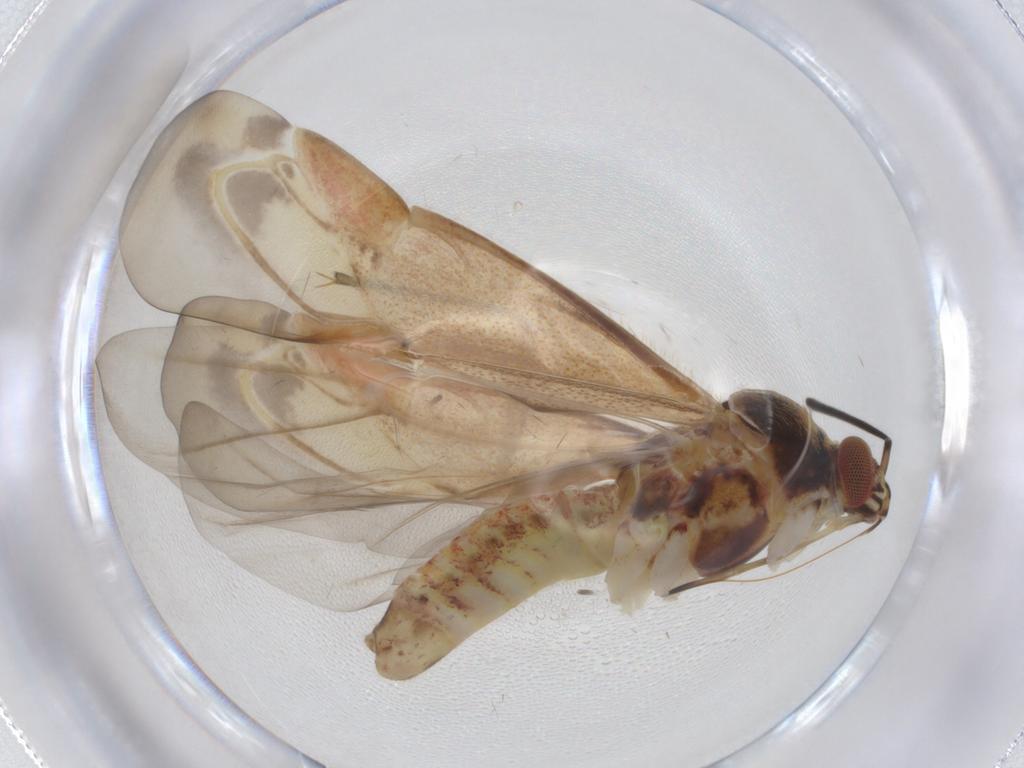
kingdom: Animalia
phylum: Arthropoda
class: Insecta
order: Hemiptera
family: Miridae
